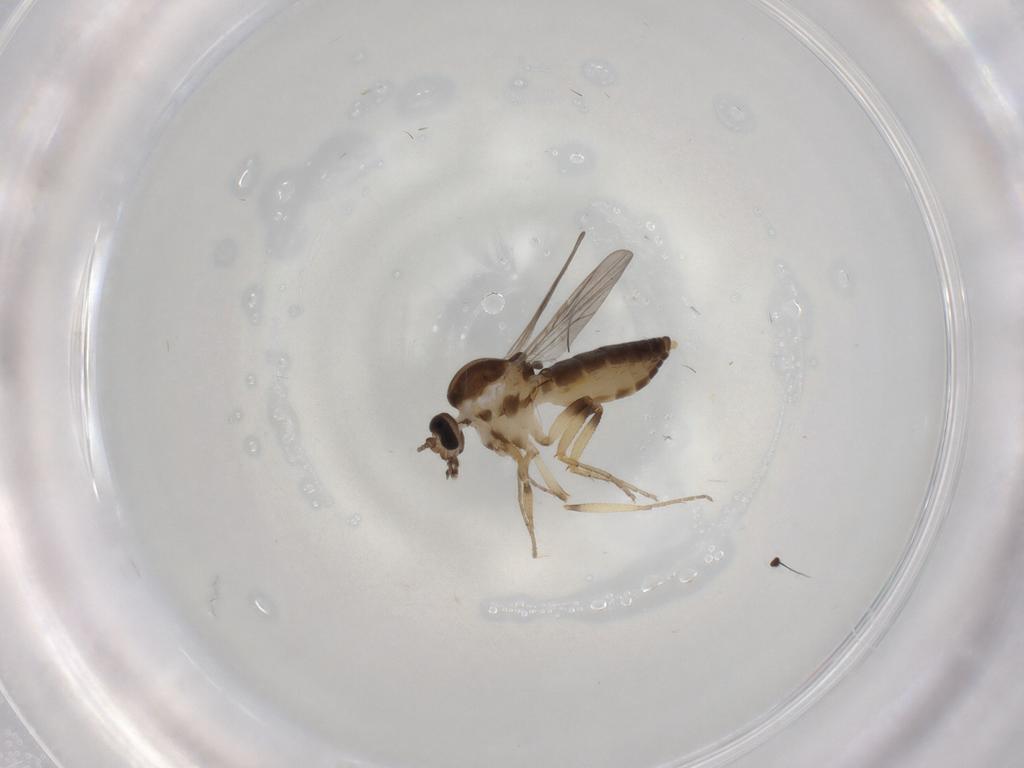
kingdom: Animalia
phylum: Arthropoda
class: Insecta
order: Diptera
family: Ceratopogonidae
